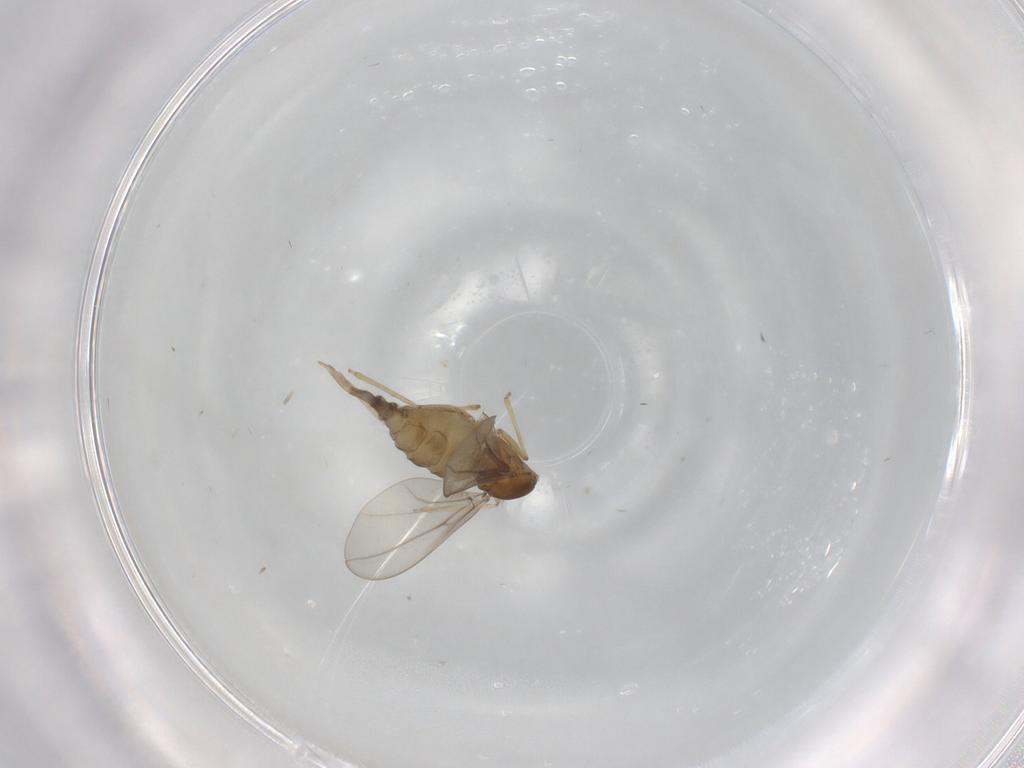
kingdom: Animalia
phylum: Arthropoda
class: Insecta
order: Diptera
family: Cecidomyiidae
